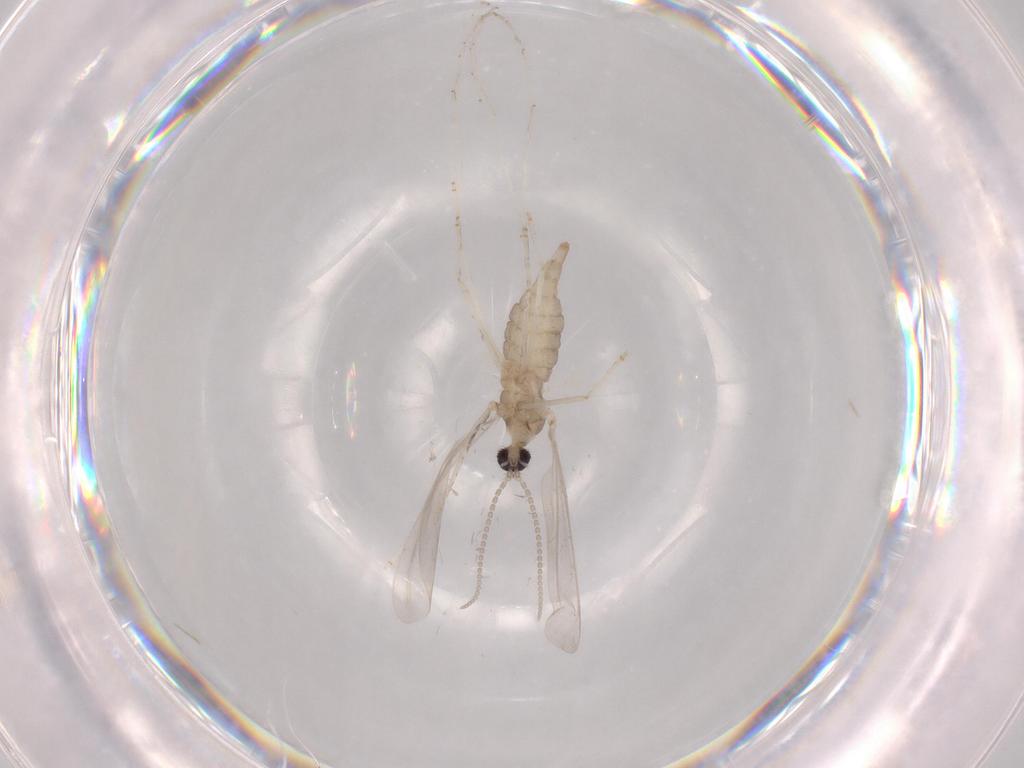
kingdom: Animalia
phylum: Arthropoda
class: Insecta
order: Diptera
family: Cecidomyiidae
